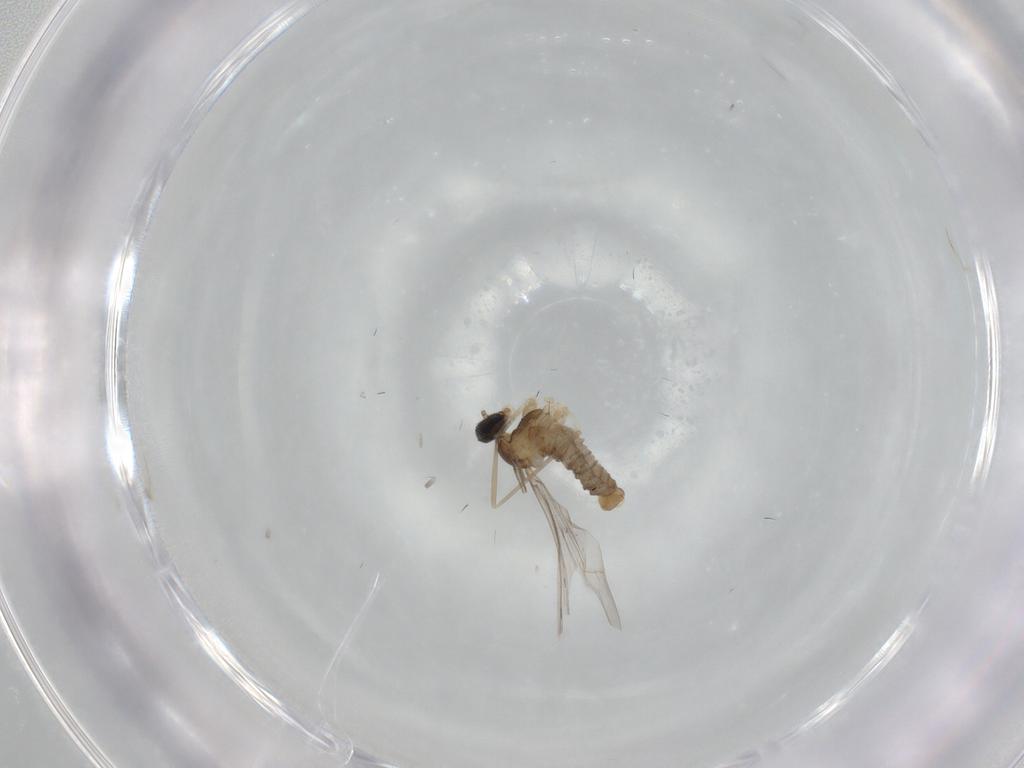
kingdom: Animalia
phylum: Arthropoda
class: Insecta
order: Diptera
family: Cecidomyiidae
